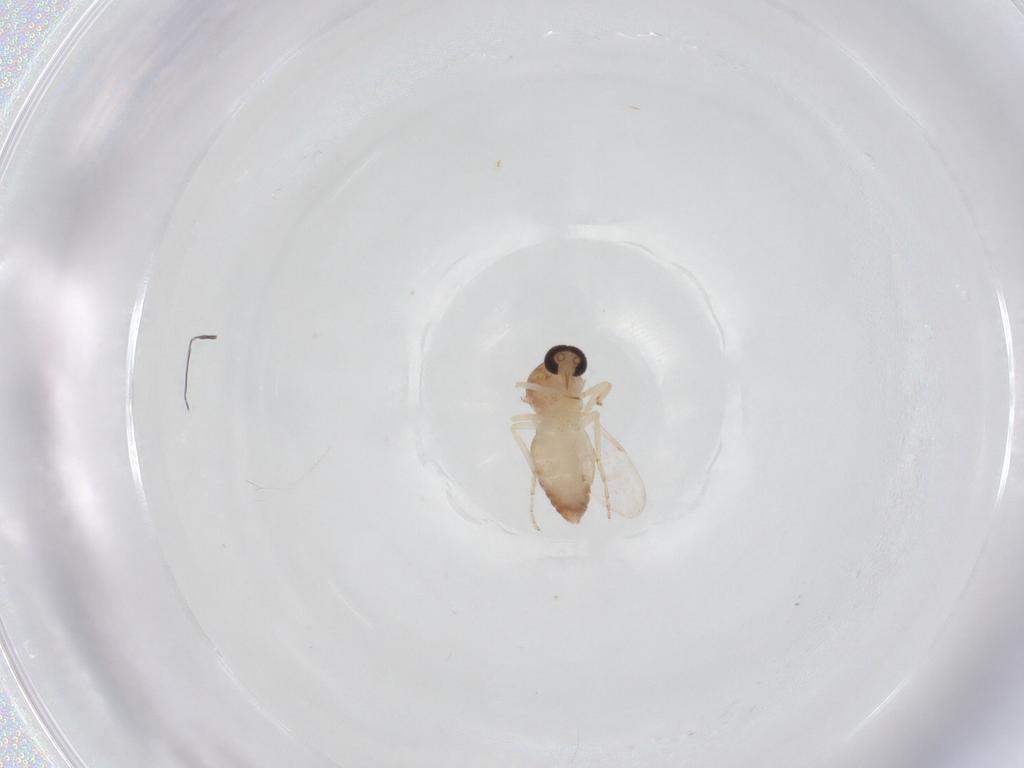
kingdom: Animalia
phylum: Arthropoda
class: Insecta
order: Diptera
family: Ceratopogonidae
